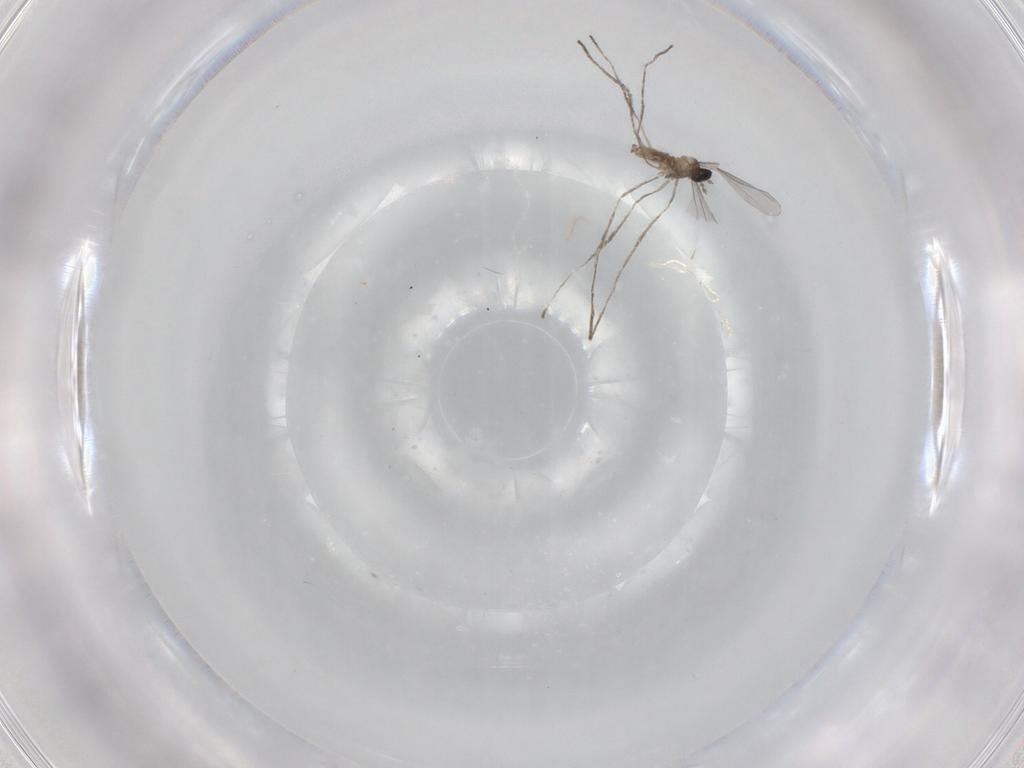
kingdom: Animalia
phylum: Arthropoda
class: Insecta
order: Diptera
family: Cecidomyiidae
